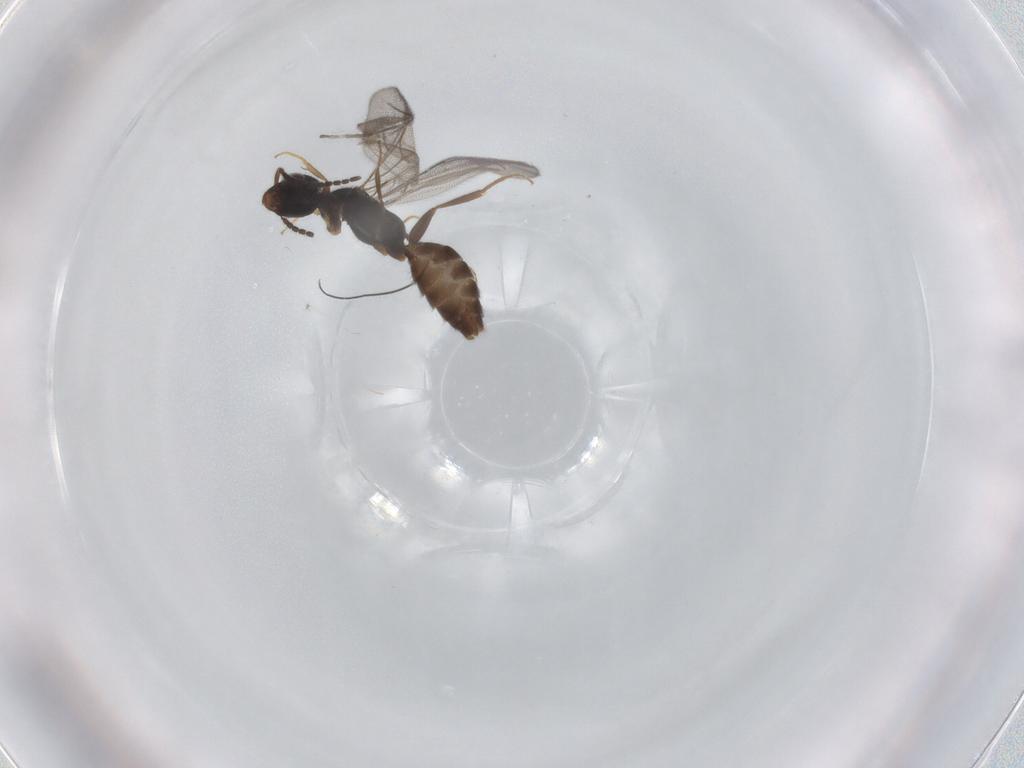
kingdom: Animalia
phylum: Arthropoda
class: Insecta
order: Hymenoptera
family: Bethylidae
